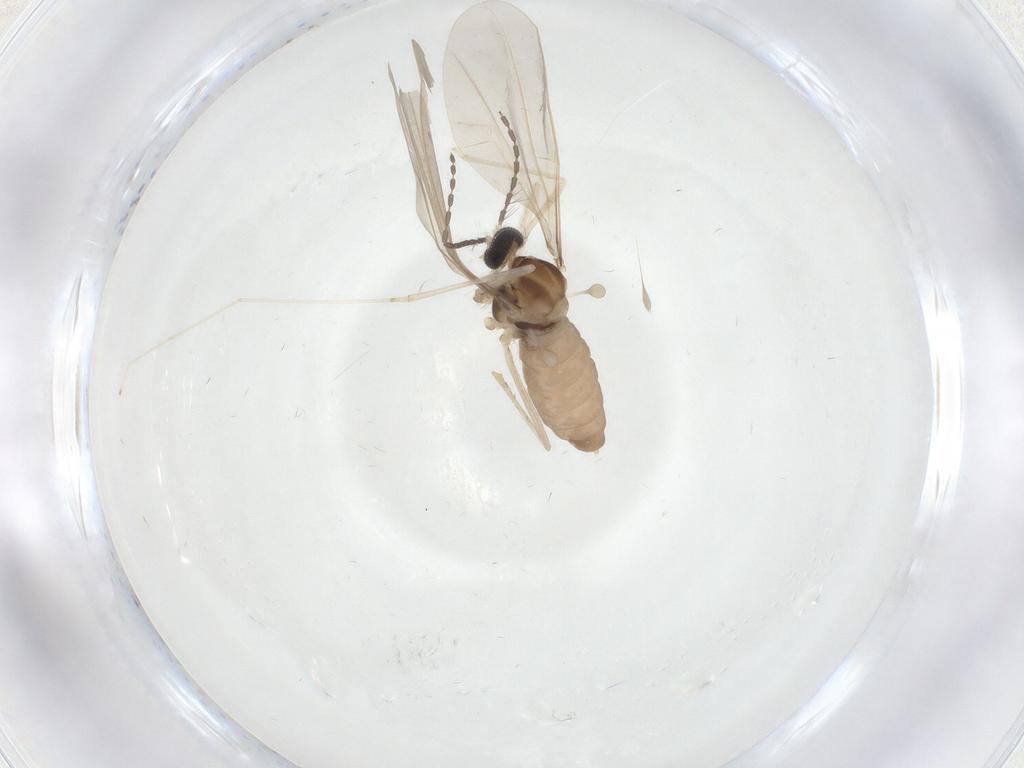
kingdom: Animalia
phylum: Arthropoda
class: Insecta
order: Diptera
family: Cecidomyiidae
